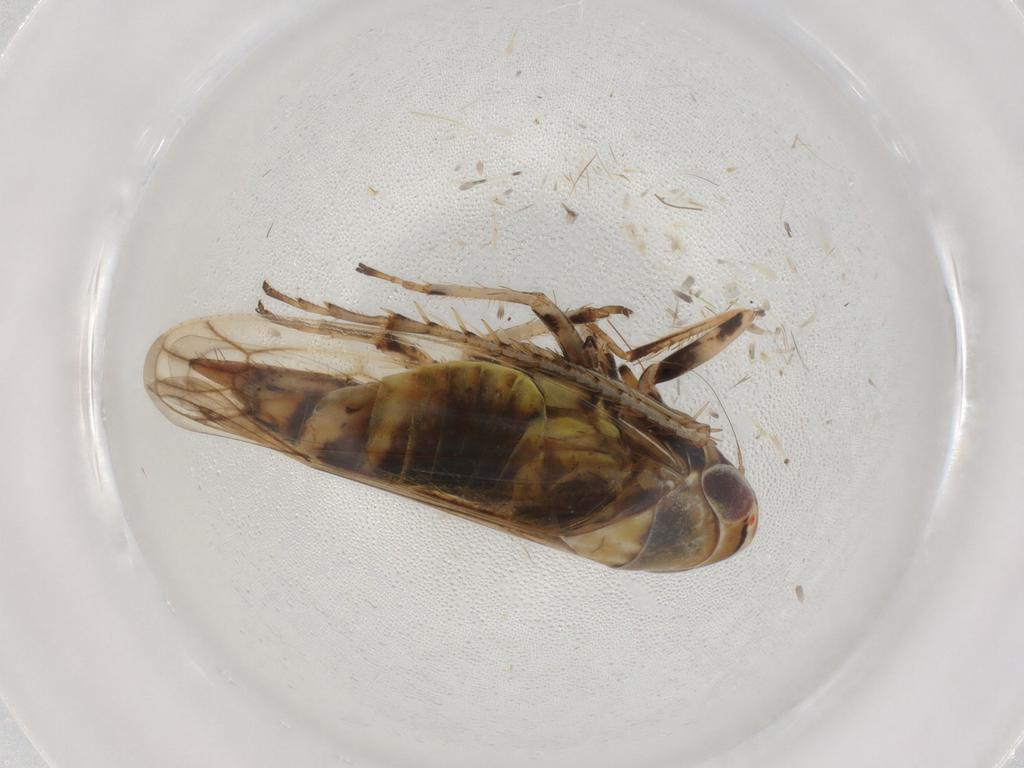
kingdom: Animalia
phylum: Arthropoda
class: Insecta
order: Hemiptera
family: Cicadellidae
